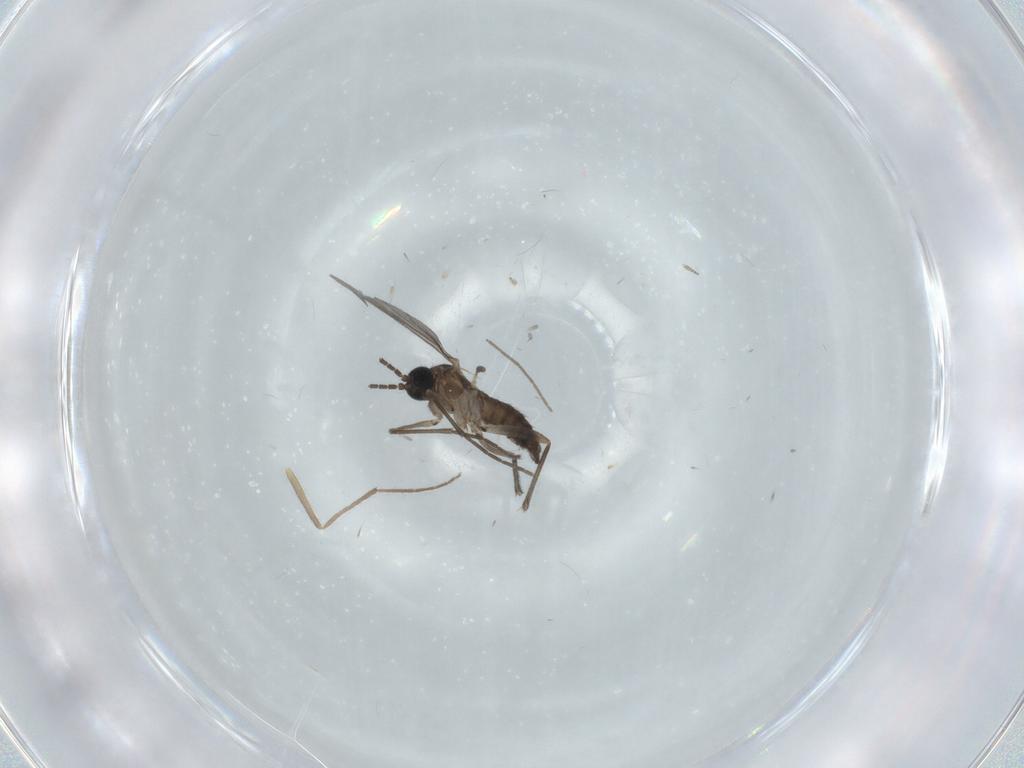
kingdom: Animalia
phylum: Arthropoda
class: Insecta
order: Diptera
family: Sciaridae
